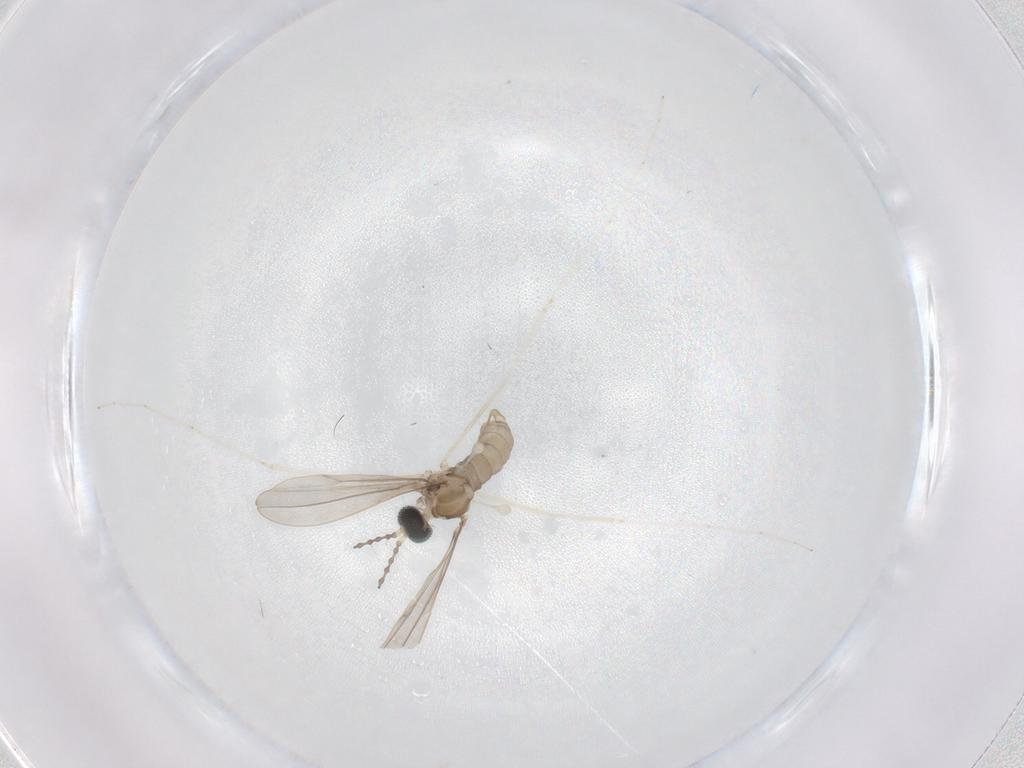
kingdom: Animalia
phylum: Arthropoda
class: Insecta
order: Diptera
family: Cecidomyiidae
